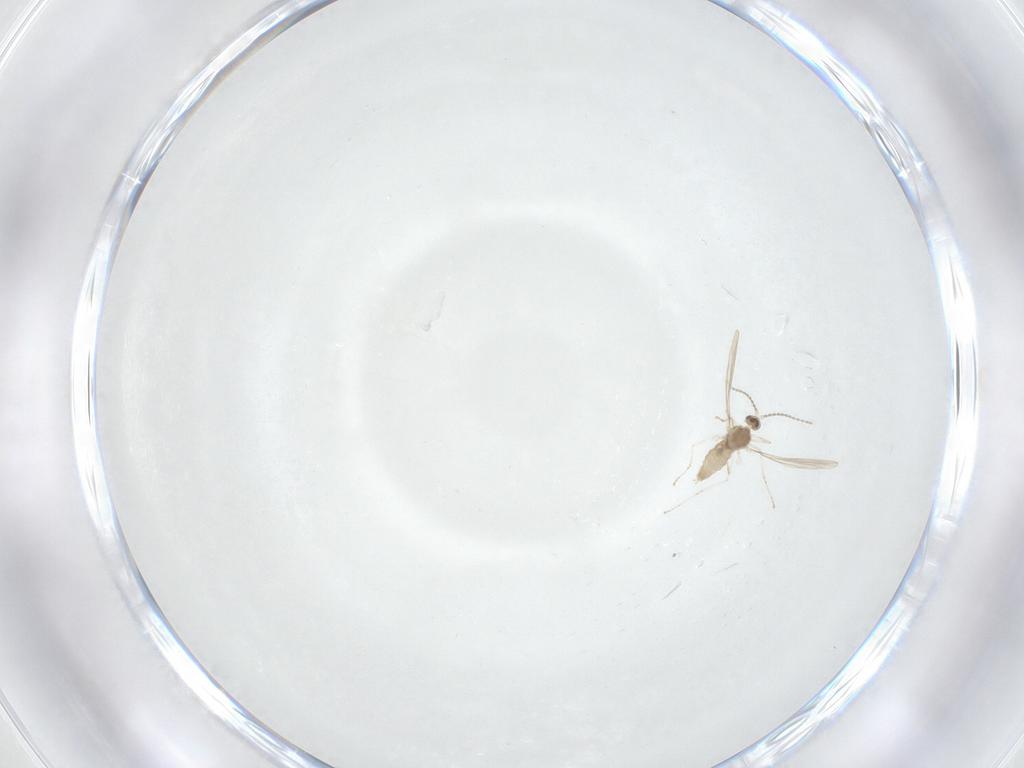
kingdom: Animalia
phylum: Arthropoda
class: Insecta
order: Diptera
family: Cecidomyiidae
